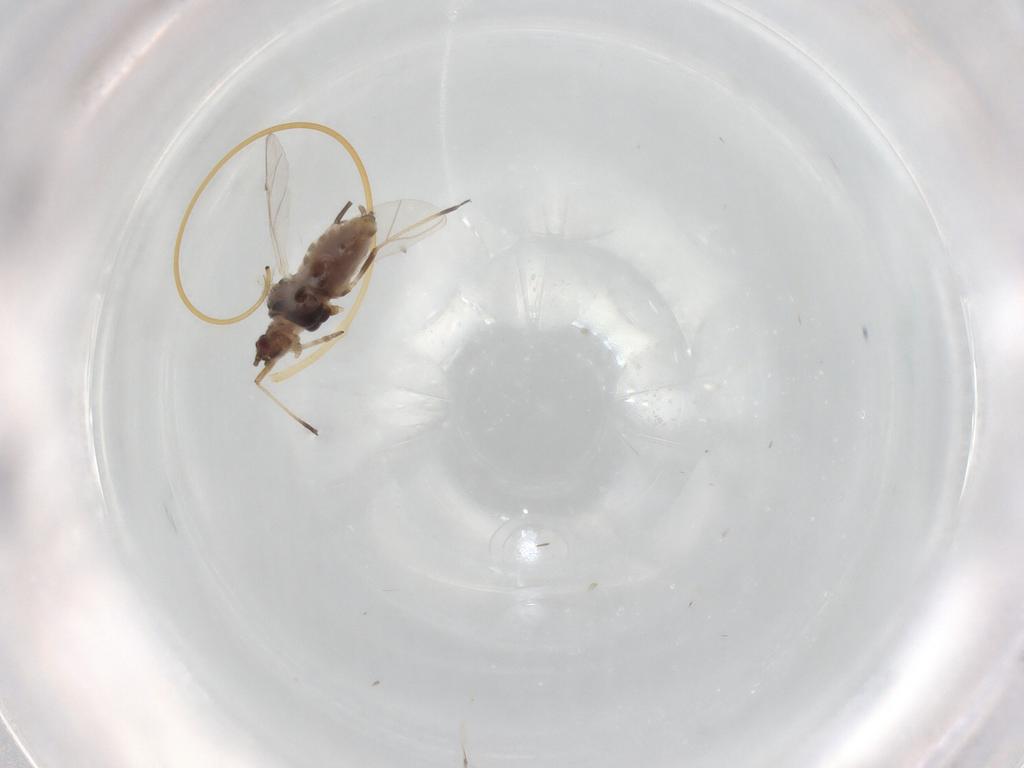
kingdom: Animalia
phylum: Arthropoda
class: Insecta
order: Hemiptera
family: Aphididae
